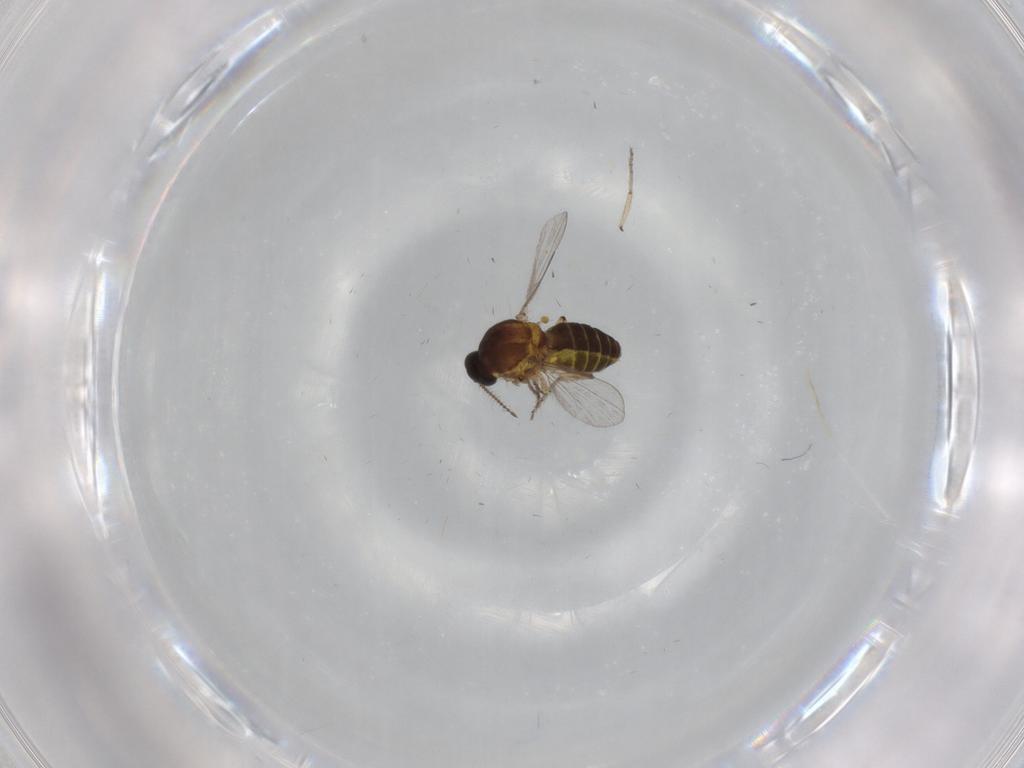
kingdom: Animalia
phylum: Arthropoda
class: Insecta
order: Diptera
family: Ceratopogonidae
